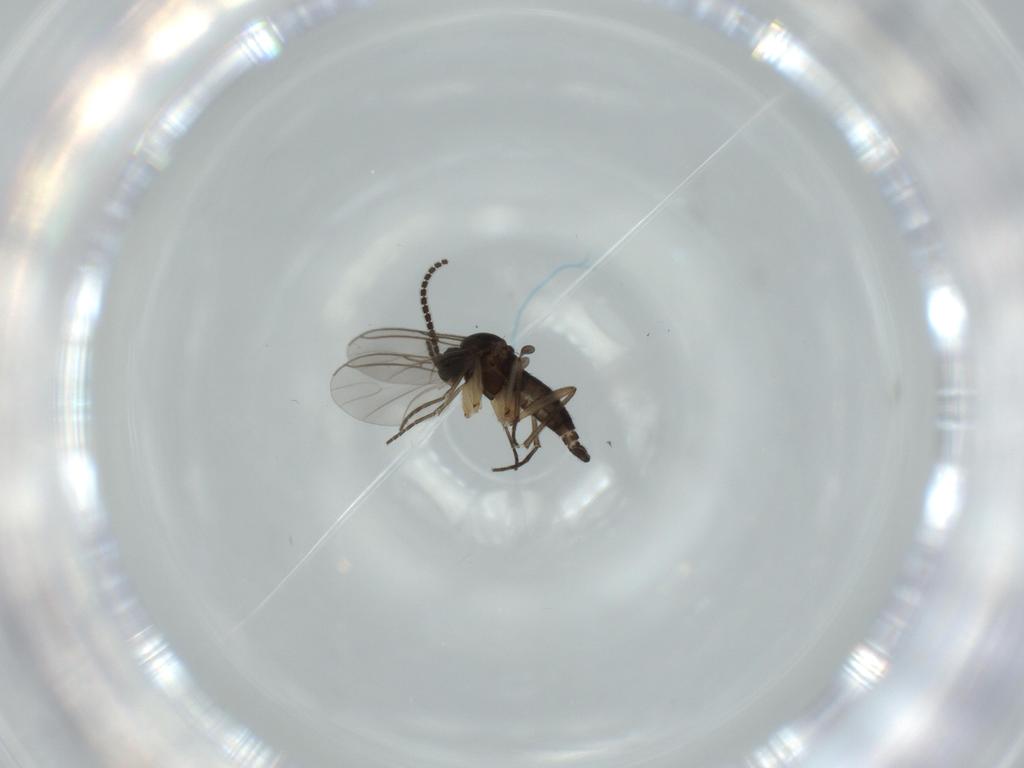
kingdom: Animalia
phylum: Arthropoda
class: Insecta
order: Diptera
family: Sciaridae
